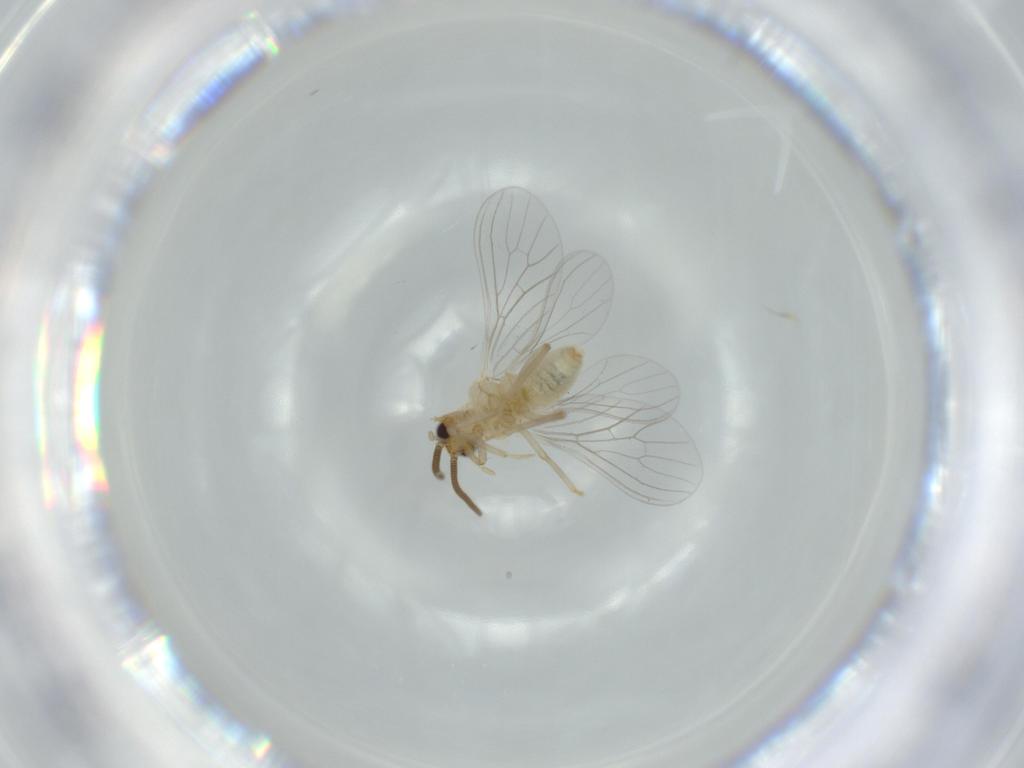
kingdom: Animalia
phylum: Arthropoda
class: Insecta
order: Neuroptera
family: Coniopterygidae
